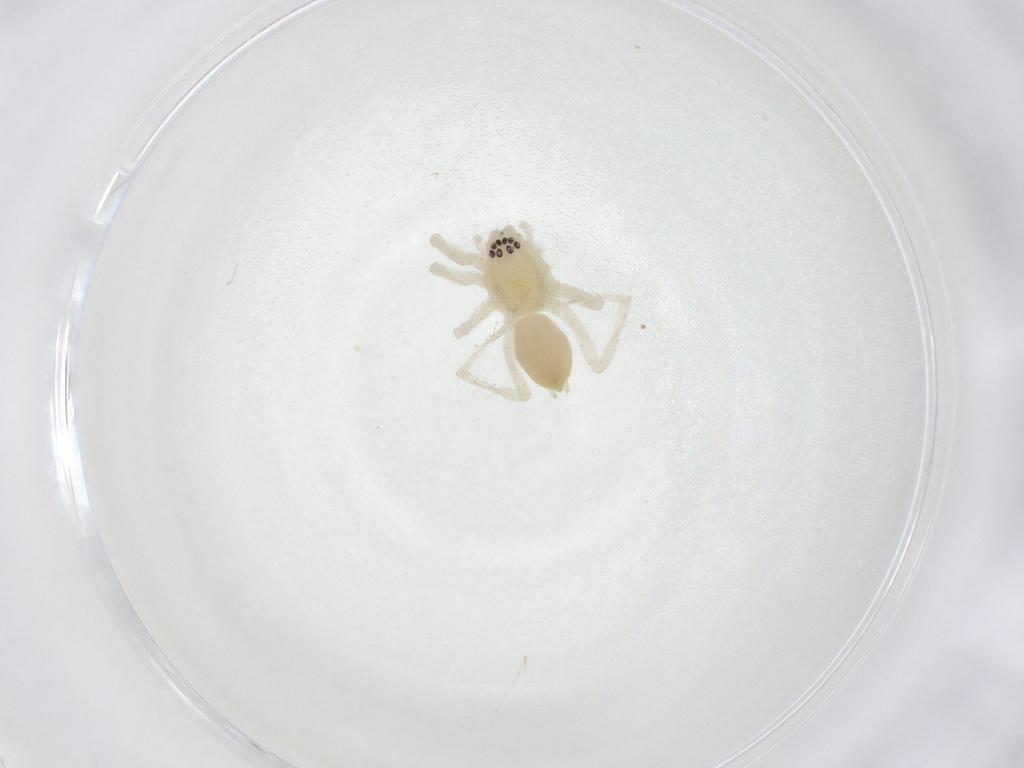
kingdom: Animalia
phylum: Arthropoda
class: Arachnida
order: Araneae
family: Anyphaenidae
